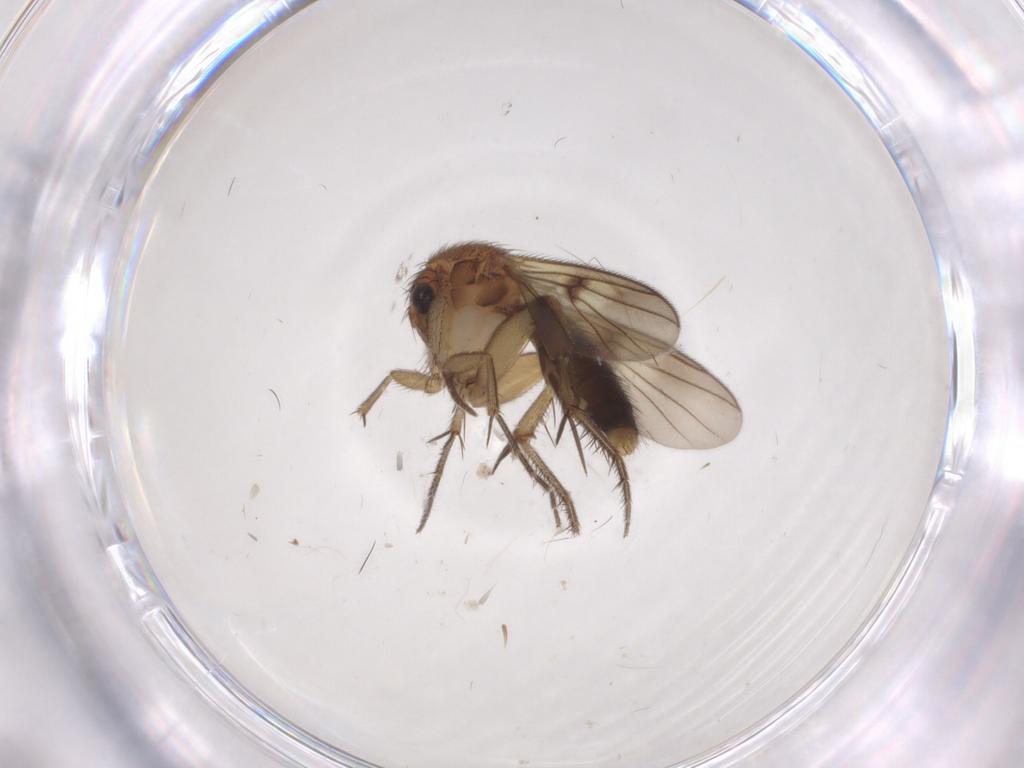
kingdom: Animalia
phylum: Arthropoda
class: Insecta
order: Diptera
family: Mycetophilidae
